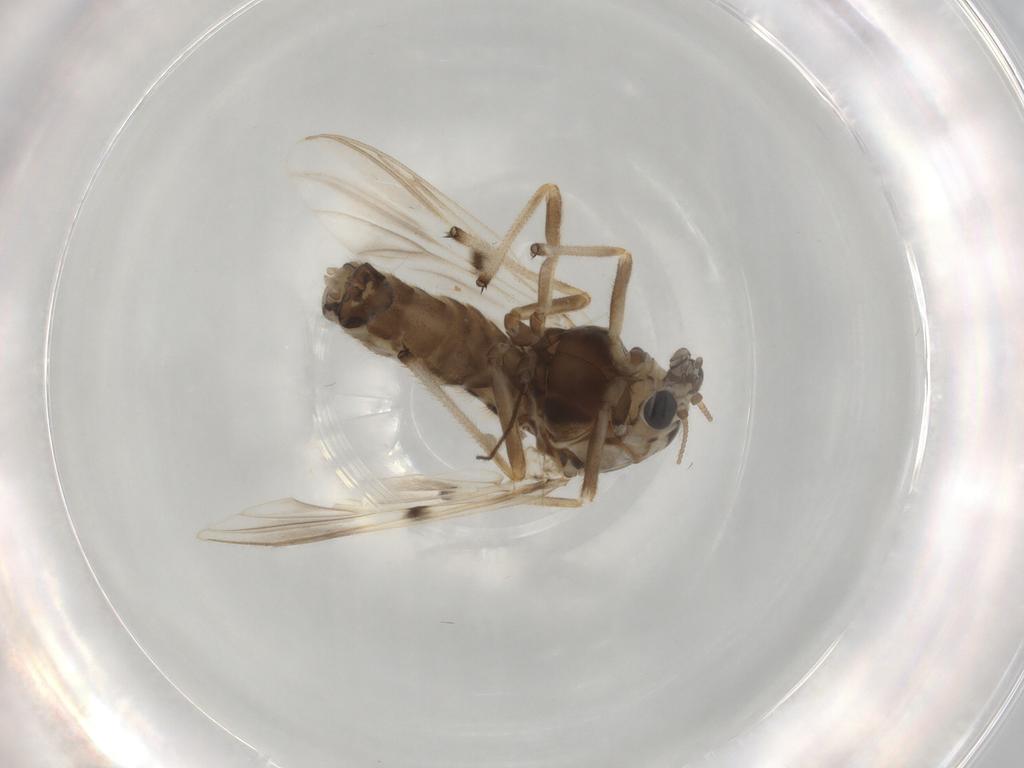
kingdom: Animalia
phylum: Arthropoda
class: Insecta
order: Diptera
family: Chironomidae
